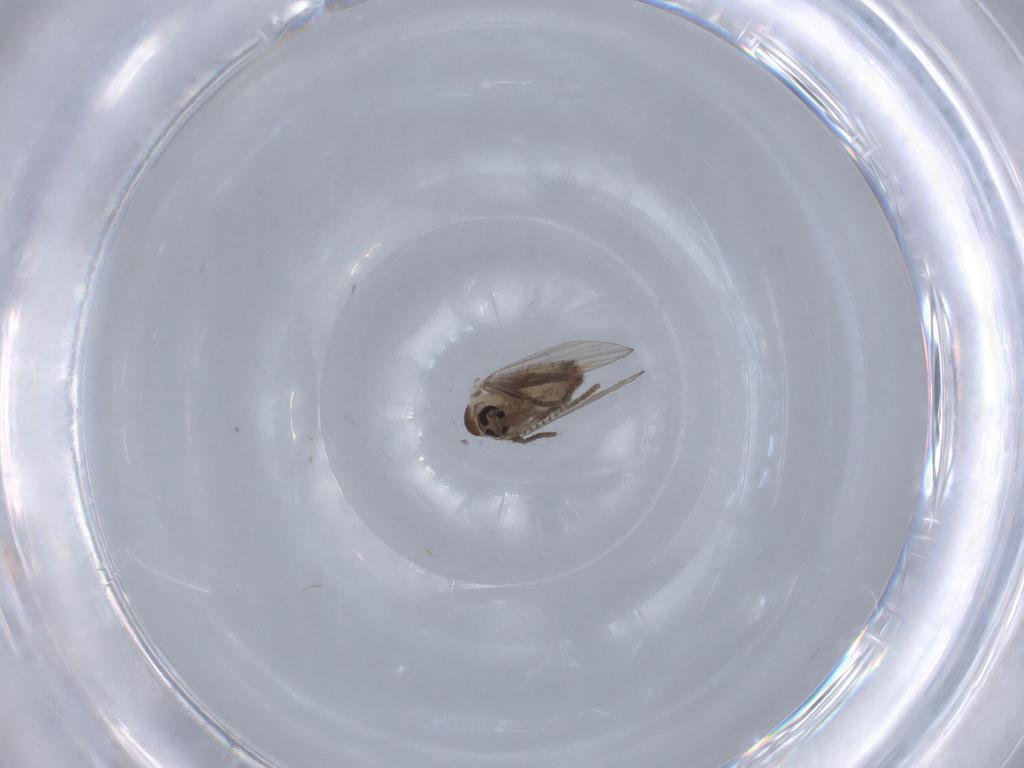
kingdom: Animalia
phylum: Arthropoda
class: Insecta
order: Diptera
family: Psychodidae
